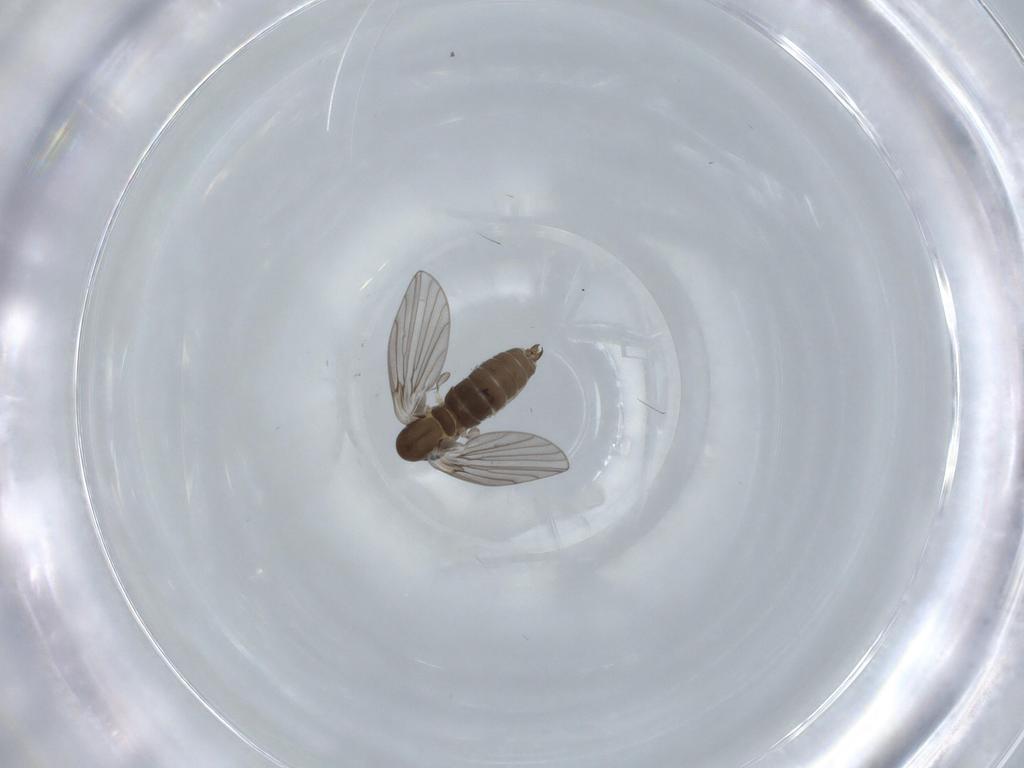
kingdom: Animalia
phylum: Arthropoda
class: Insecta
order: Diptera
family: Psychodidae
